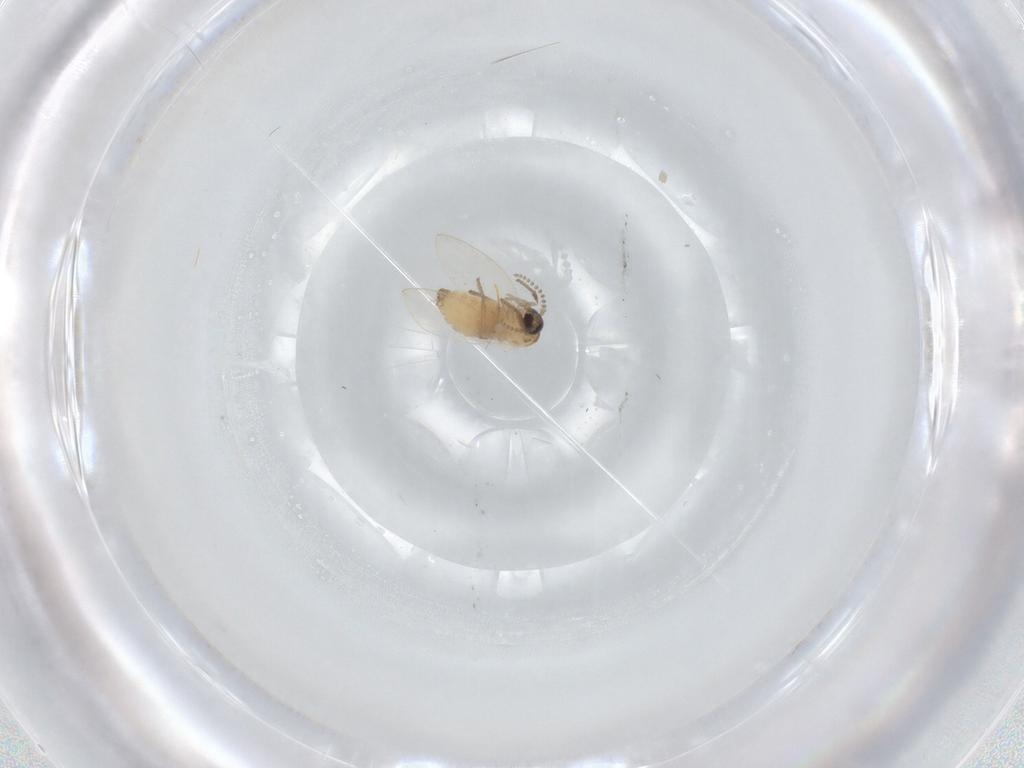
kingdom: Animalia
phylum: Arthropoda
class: Insecta
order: Diptera
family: Psychodidae
